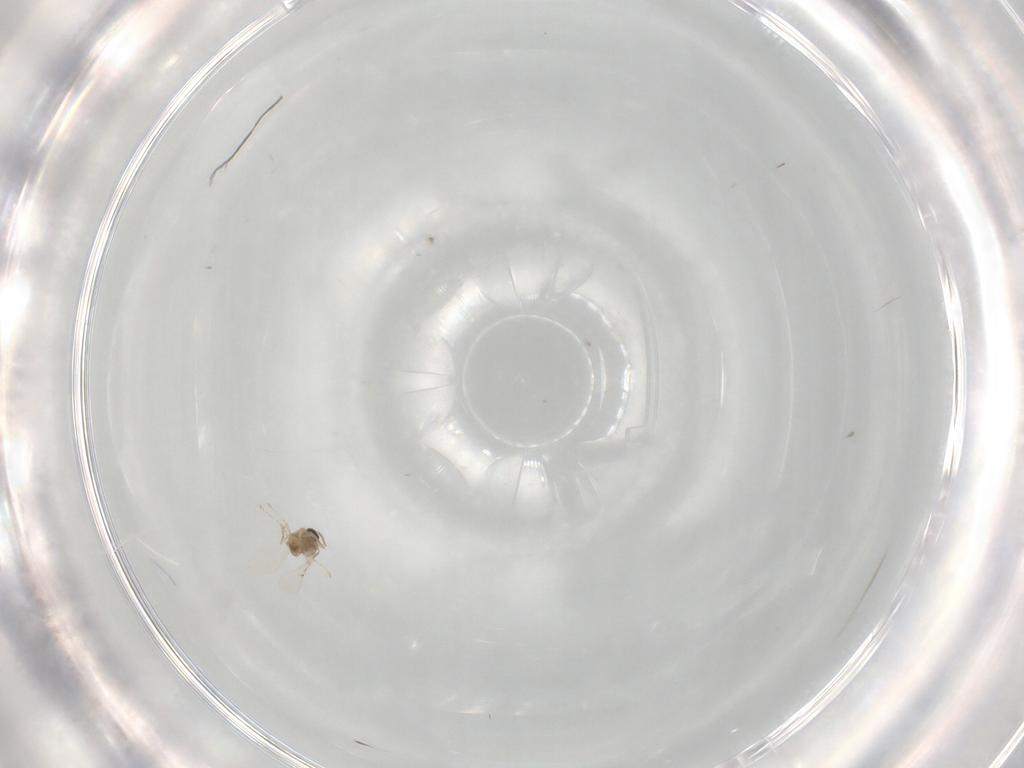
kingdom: Animalia
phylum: Arthropoda
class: Insecta
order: Diptera
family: Cecidomyiidae
